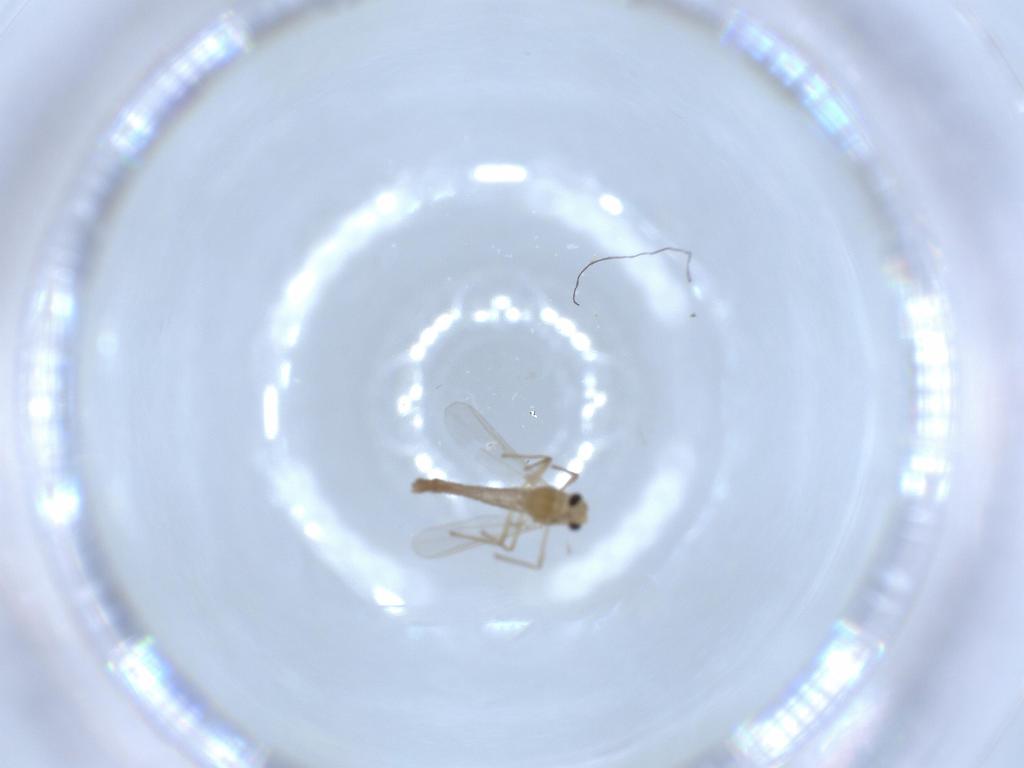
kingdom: Animalia
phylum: Arthropoda
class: Insecta
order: Diptera
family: Chironomidae
